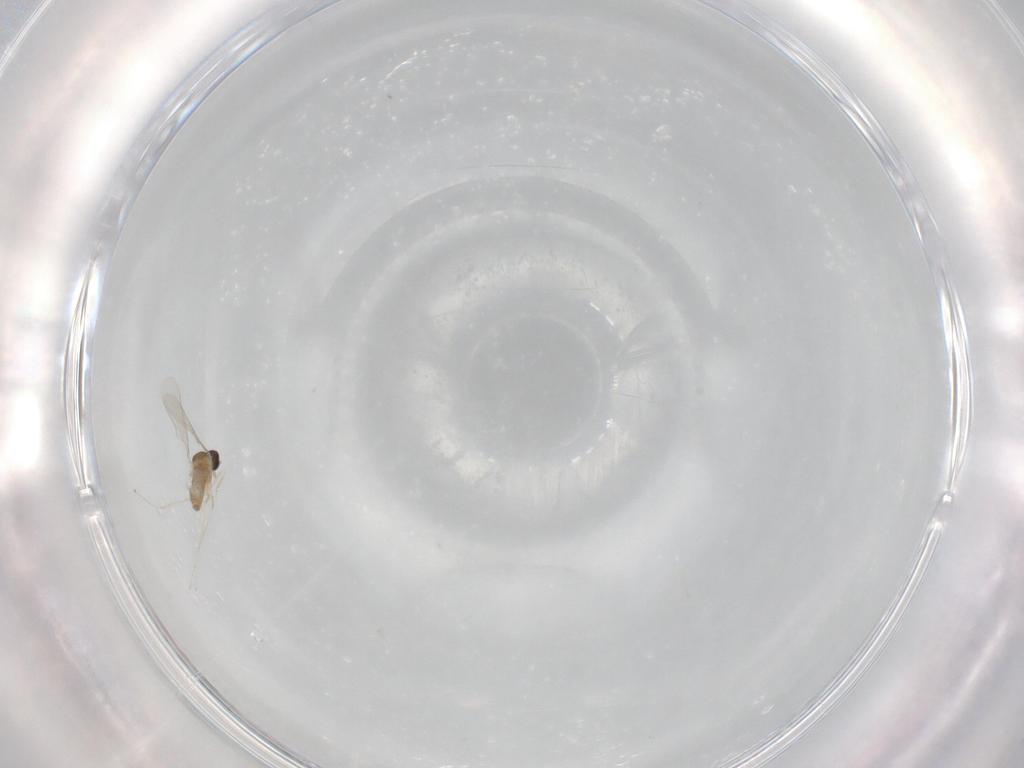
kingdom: Animalia
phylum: Arthropoda
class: Insecta
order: Diptera
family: Cecidomyiidae
